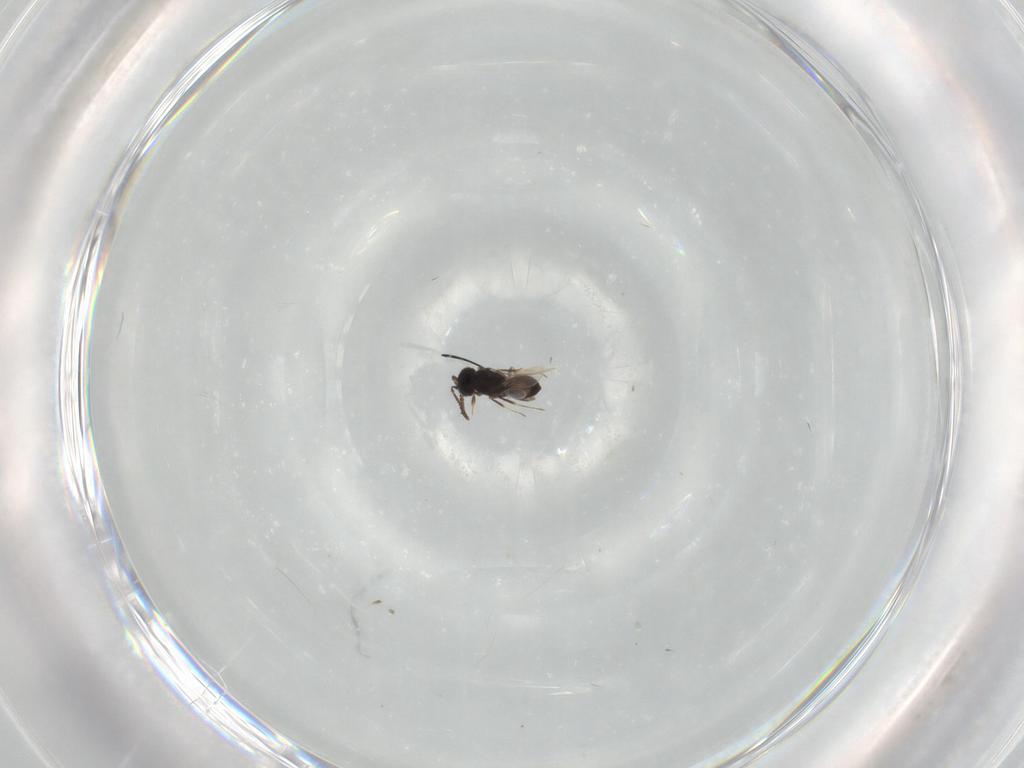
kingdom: Animalia
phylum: Arthropoda
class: Insecta
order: Hymenoptera
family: Scelionidae
